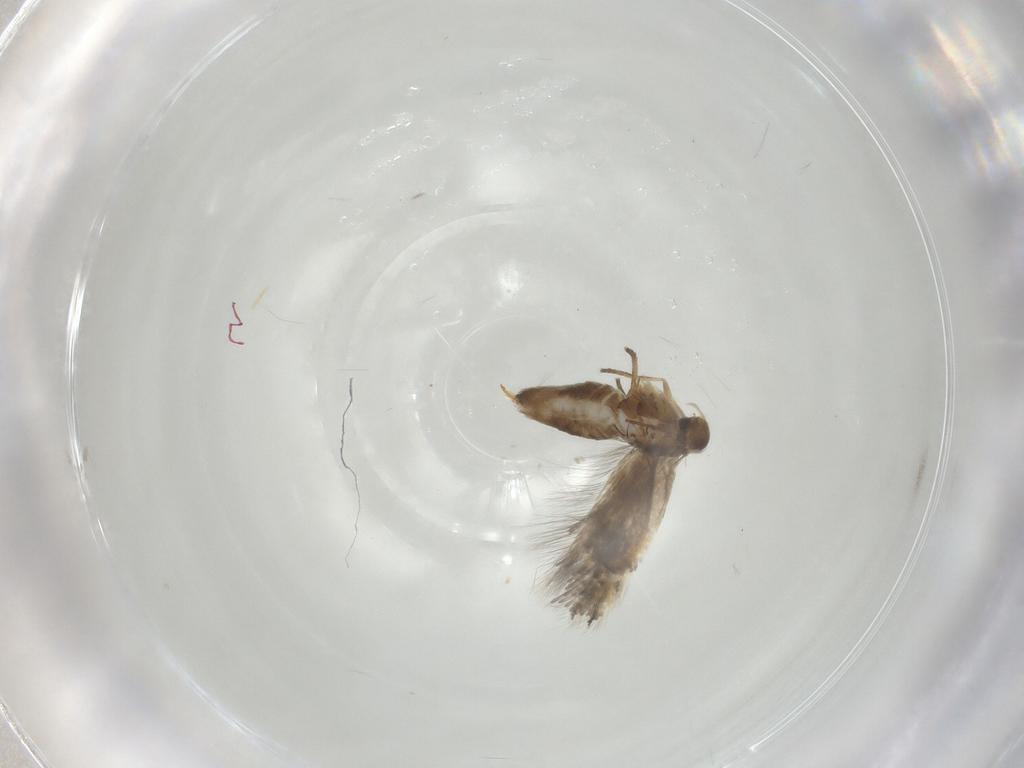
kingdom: Animalia
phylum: Arthropoda
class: Insecta
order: Lepidoptera
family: Heliozelidae
